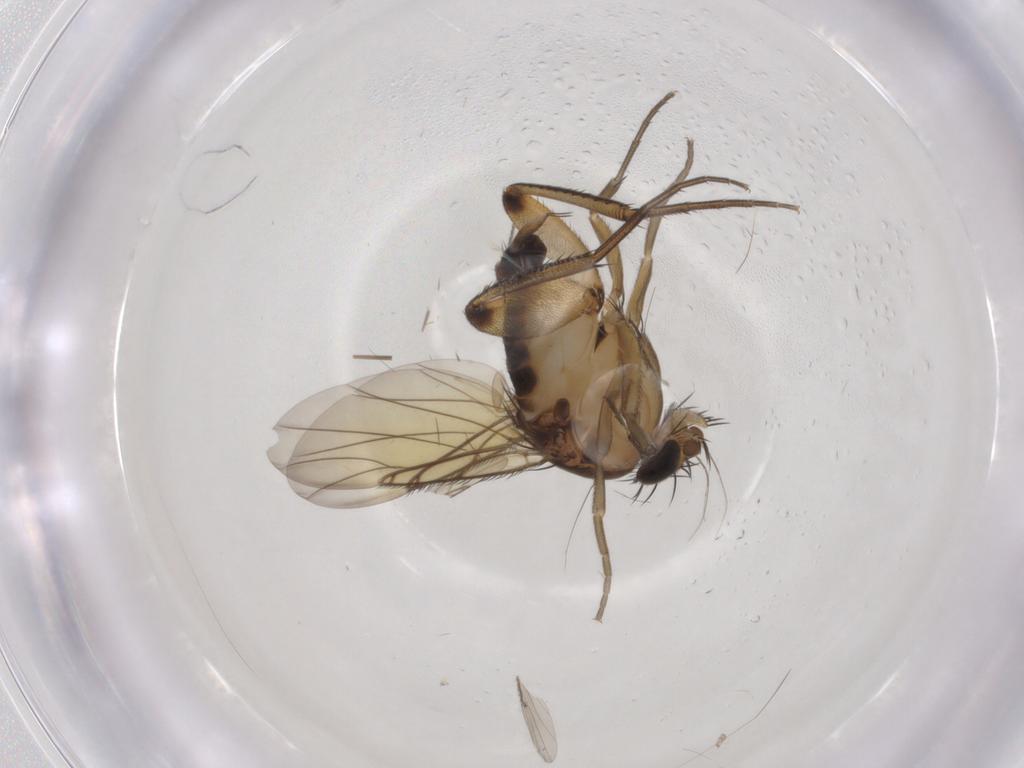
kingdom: Animalia
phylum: Arthropoda
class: Insecta
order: Diptera
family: Phoridae
